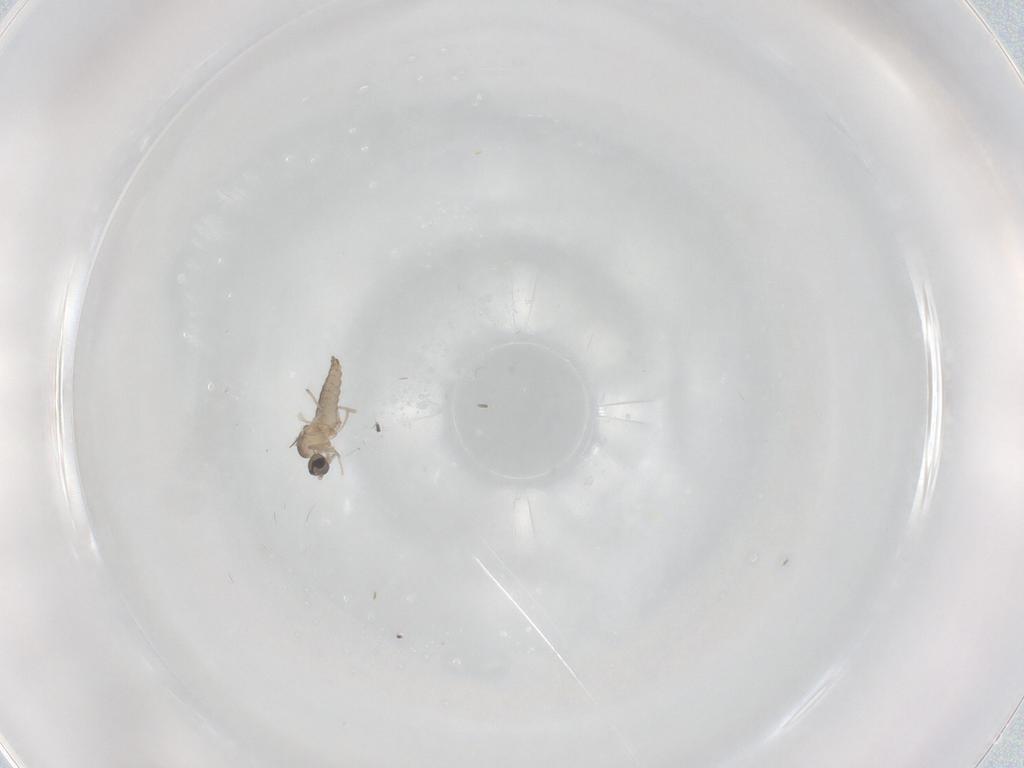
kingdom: Animalia
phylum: Arthropoda
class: Insecta
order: Diptera
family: Cecidomyiidae
